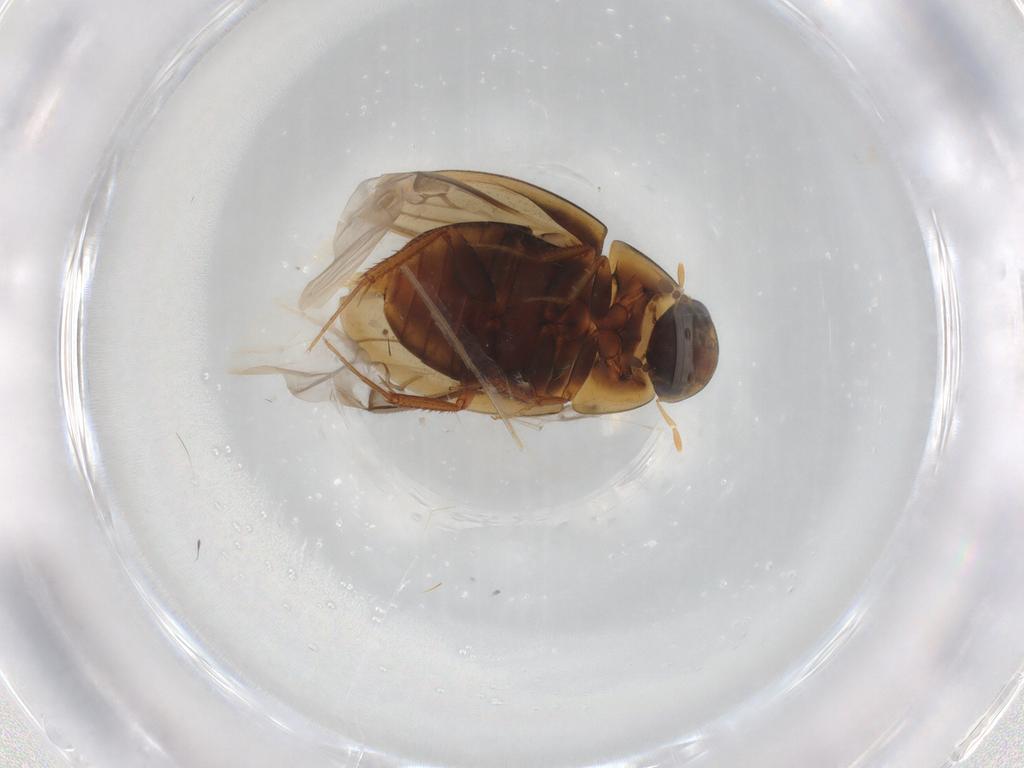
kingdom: Animalia
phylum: Arthropoda
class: Insecta
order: Coleoptera
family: Hydrophilidae
